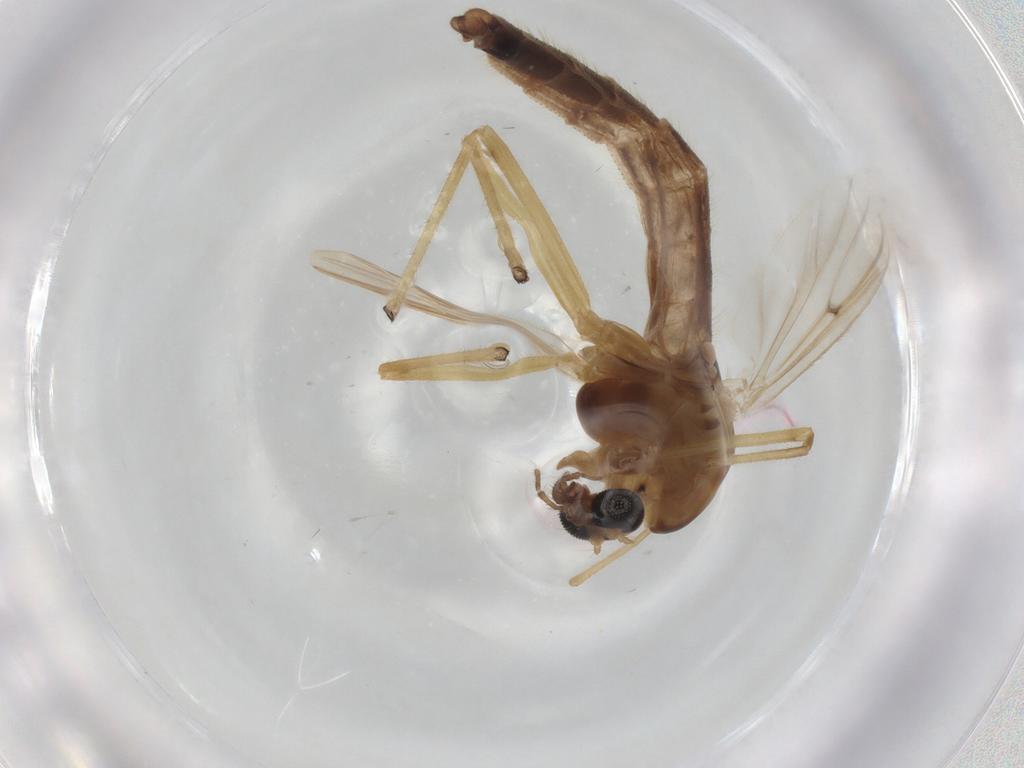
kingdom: Animalia
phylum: Arthropoda
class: Insecta
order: Diptera
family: Chironomidae
